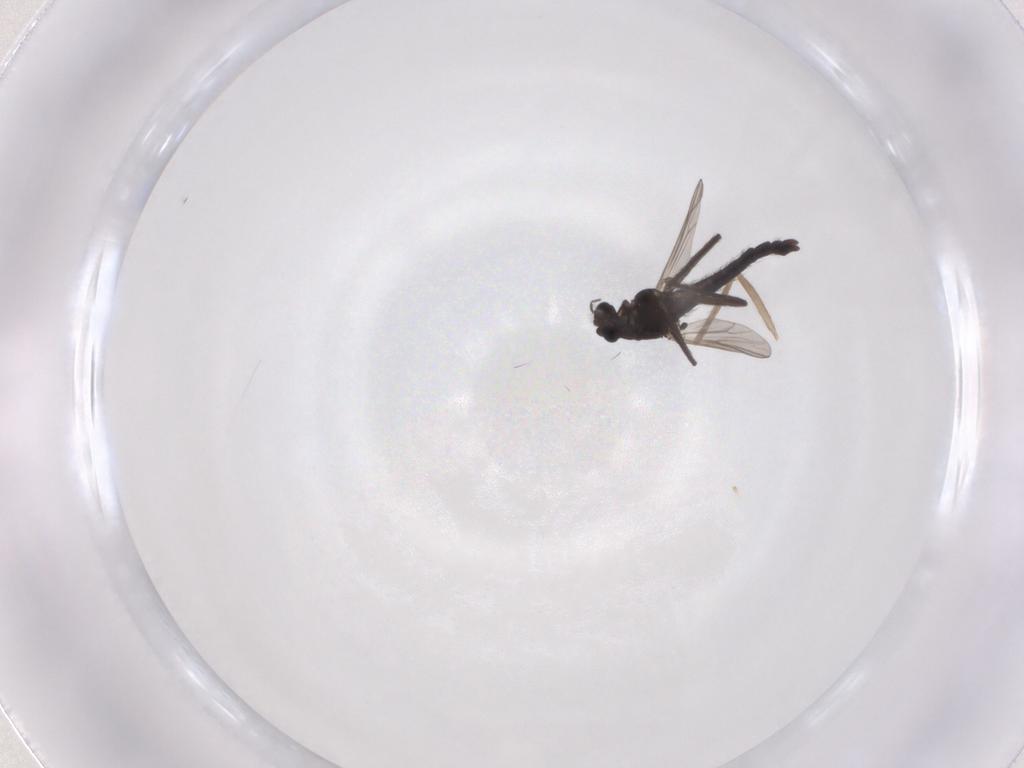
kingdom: Animalia
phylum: Arthropoda
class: Insecta
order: Diptera
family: Chironomidae
